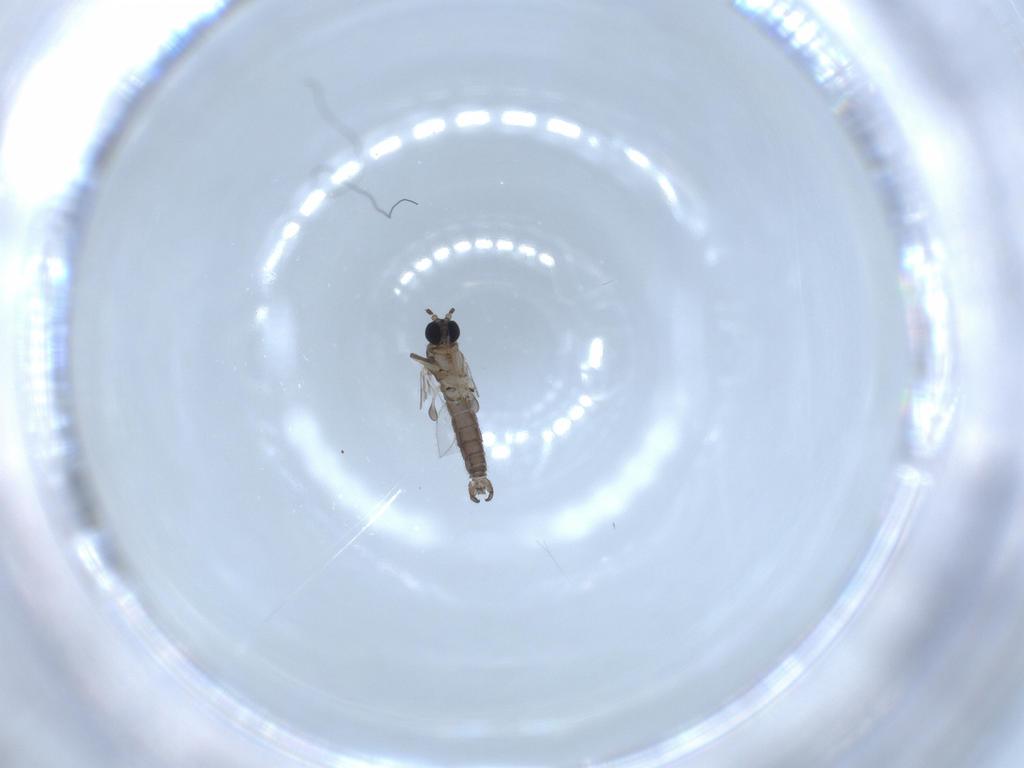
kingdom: Animalia
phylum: Arthropoda
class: Insecta
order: Diptera
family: Sciaridae
